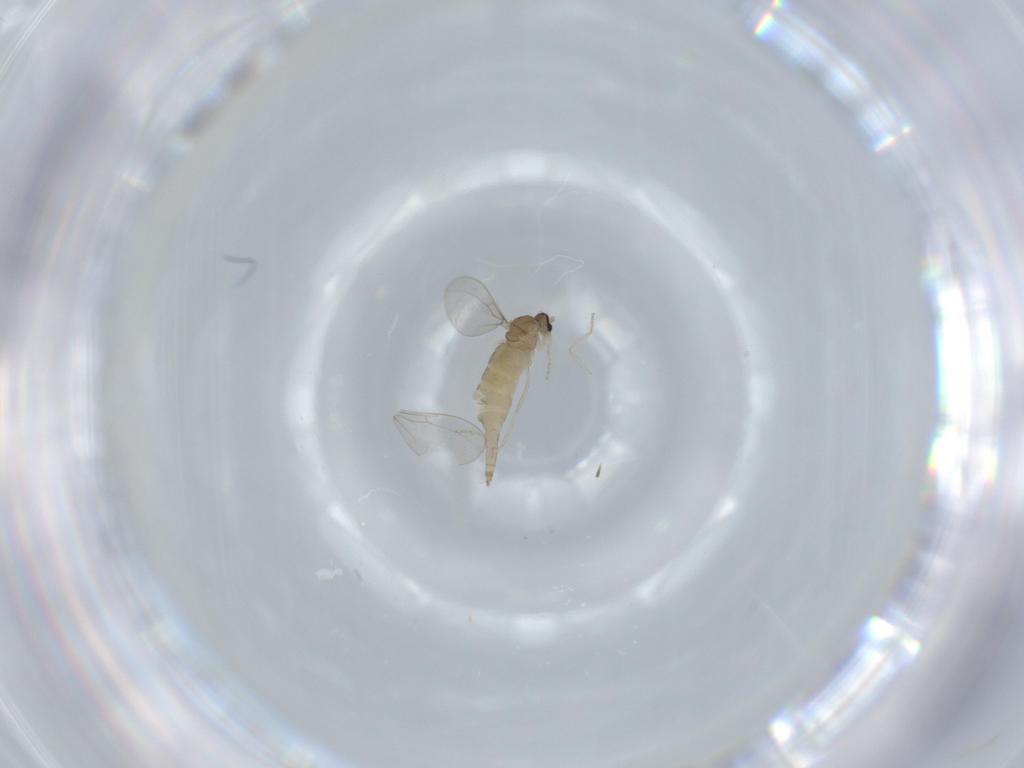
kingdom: Animalia
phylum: Arthropoda
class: Insecta
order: Diptera
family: Cecidomyiidae
